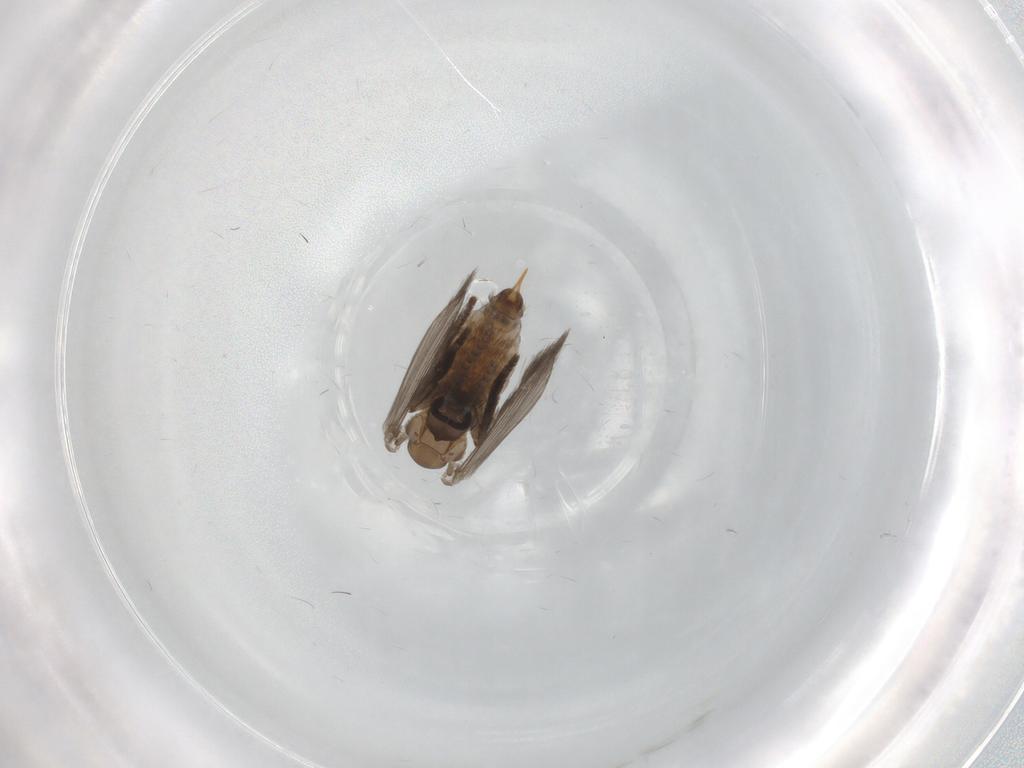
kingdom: Animalia
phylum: Arthropoda
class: Insecta
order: Diptera
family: Psychodidae
